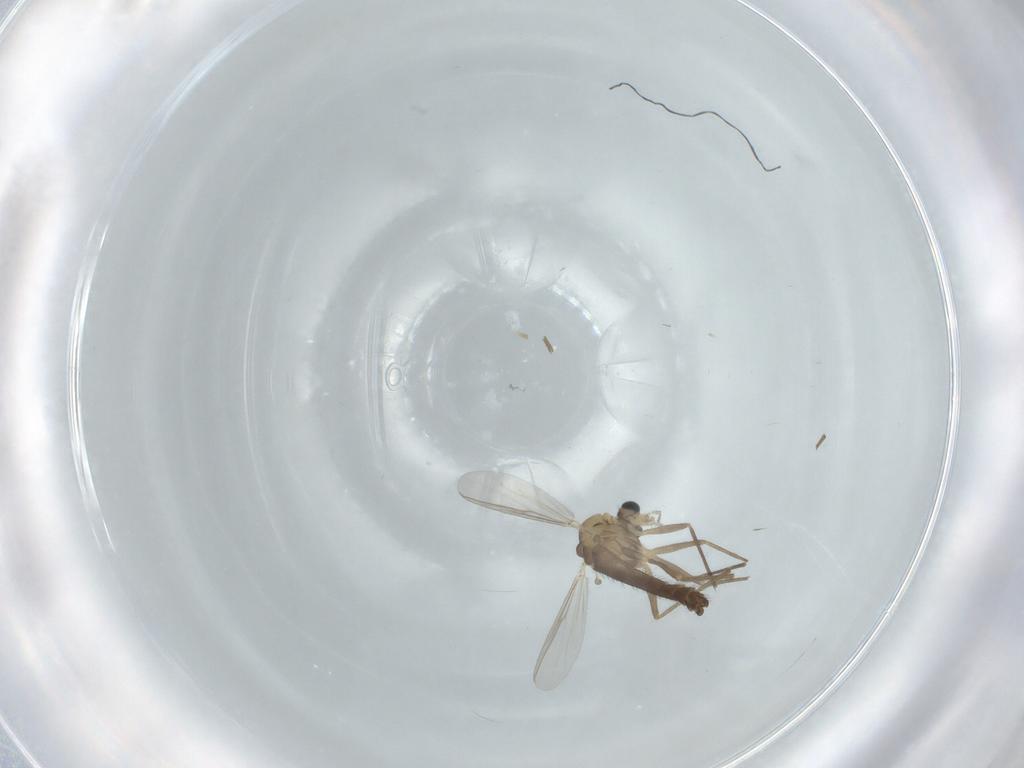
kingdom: Animalia
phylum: Arthropoda
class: Insecta
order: Diptera
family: Chironomidae
